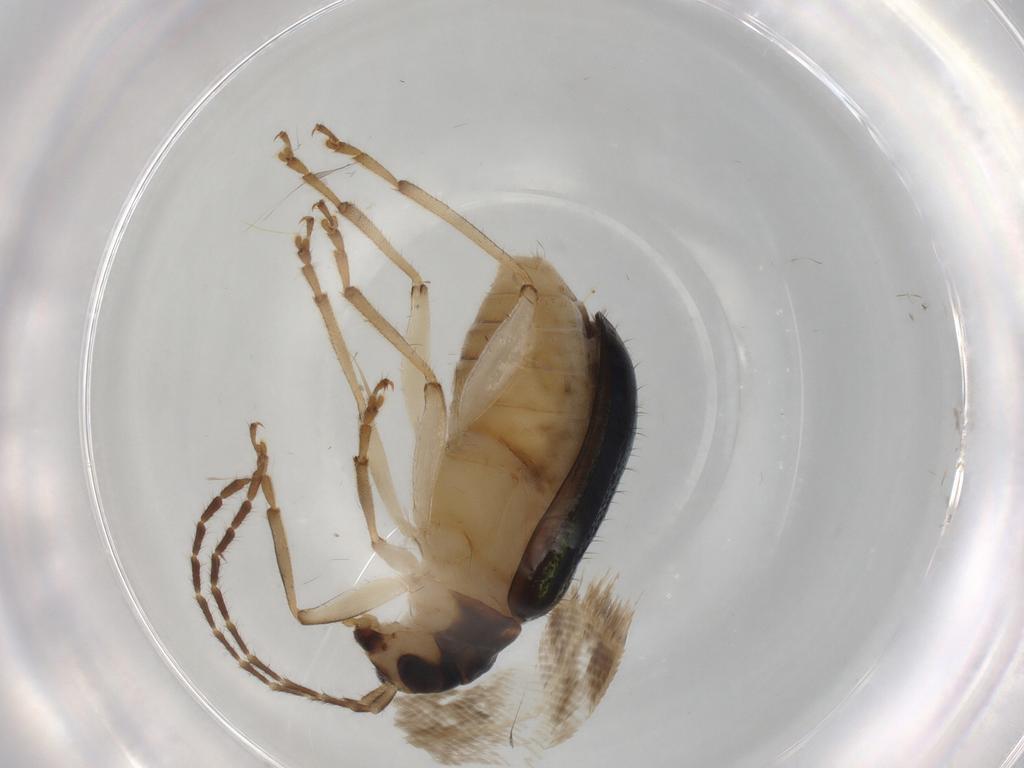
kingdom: Animalia
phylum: Arthropoda
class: Insecta
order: Coleoptera
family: Chrysomelidae
